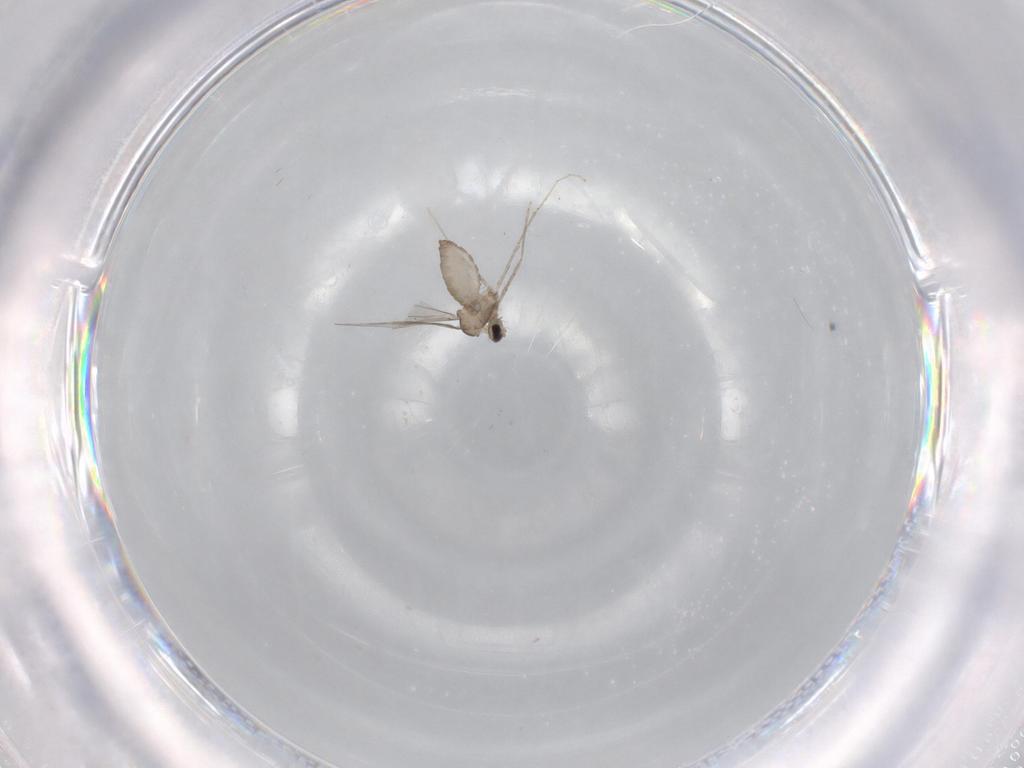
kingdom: Animalia
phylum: Arthropoda
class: Insecta
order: Diptera
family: Cecidomyiidae
